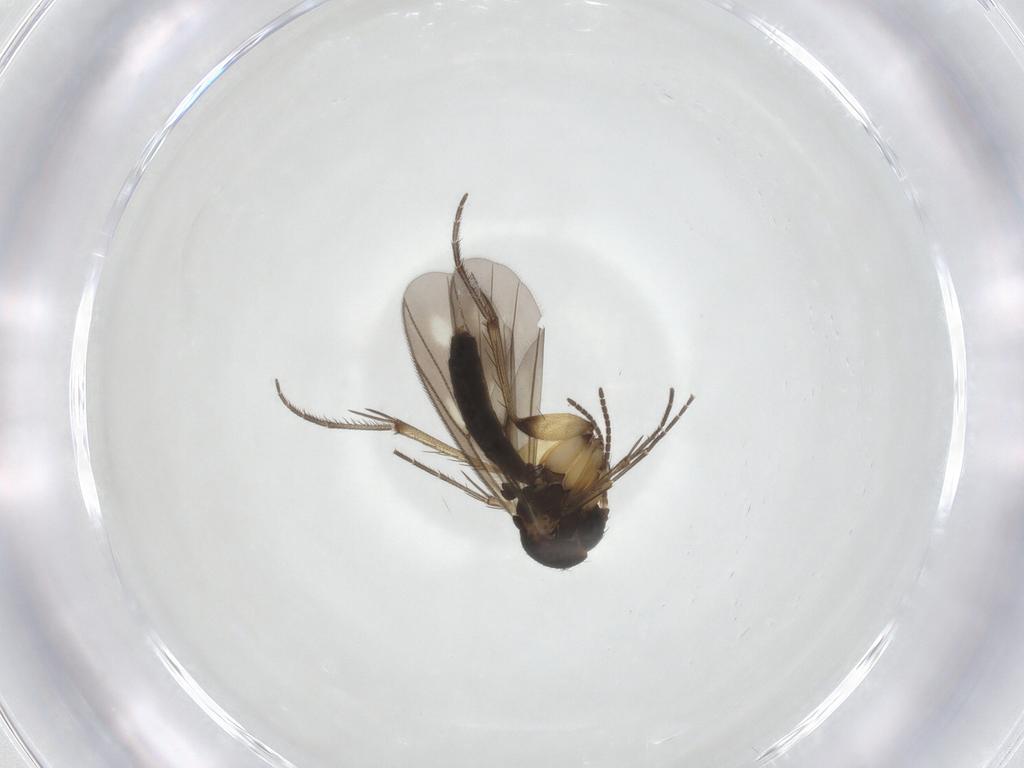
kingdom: Animalia
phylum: Arthropoda
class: Insecta
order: Diptera
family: Mycetophilidae
